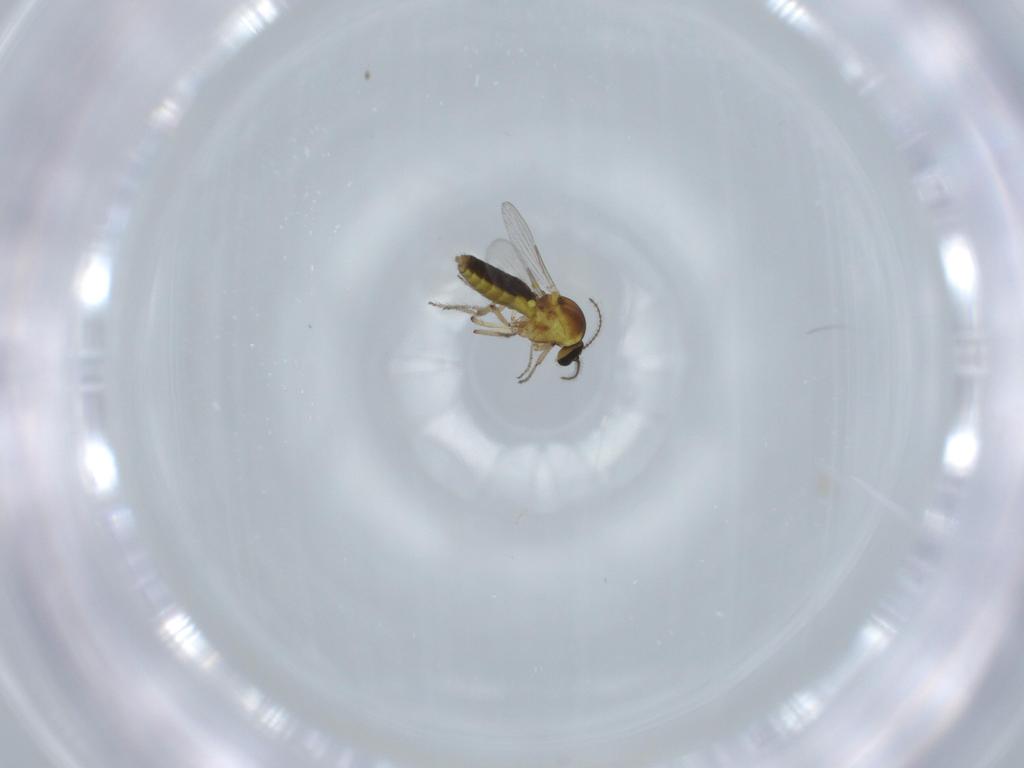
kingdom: Animalia
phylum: Arthropoda
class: Insecta
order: Diptera
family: Ceratopogonidae
